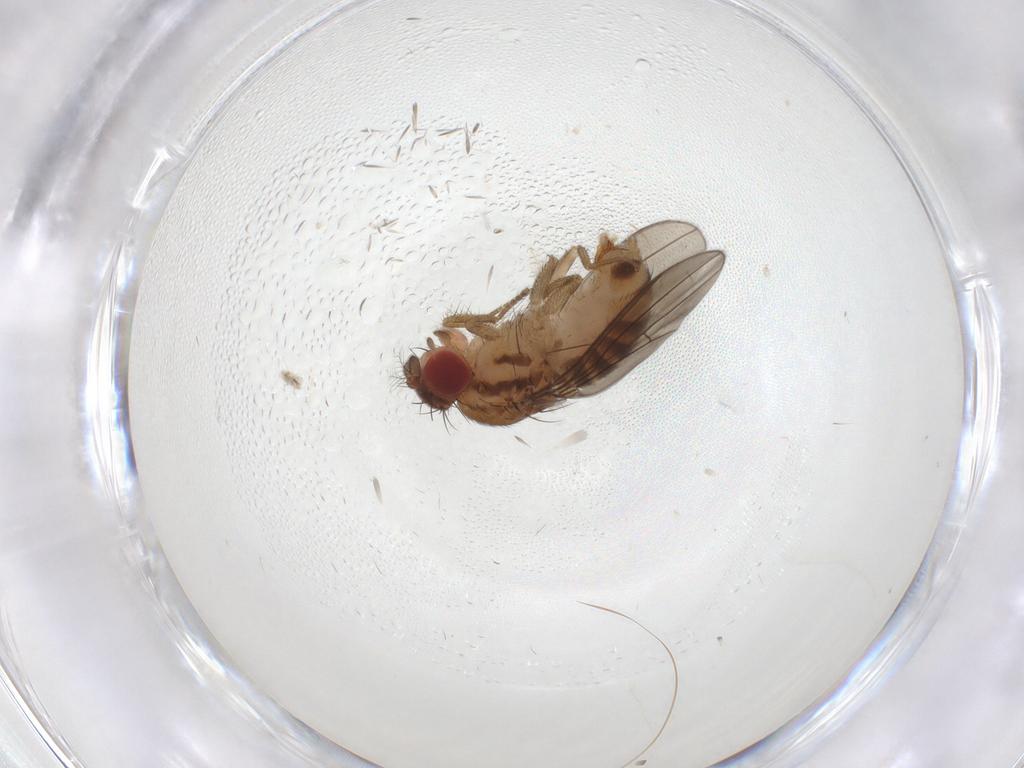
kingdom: Animalia
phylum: Arthropoda
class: Insecta
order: Diptera
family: Drosophilidae
